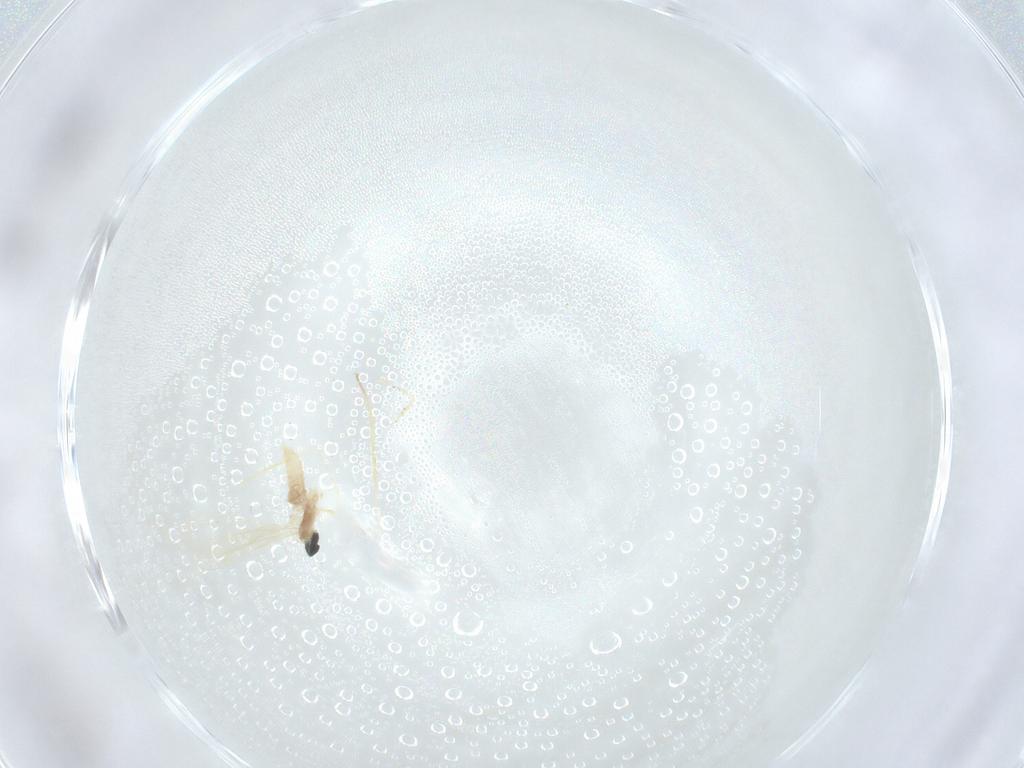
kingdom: Animalia
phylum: Arthropoda
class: Insecta
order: Diptera
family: Cecidomyiidae
